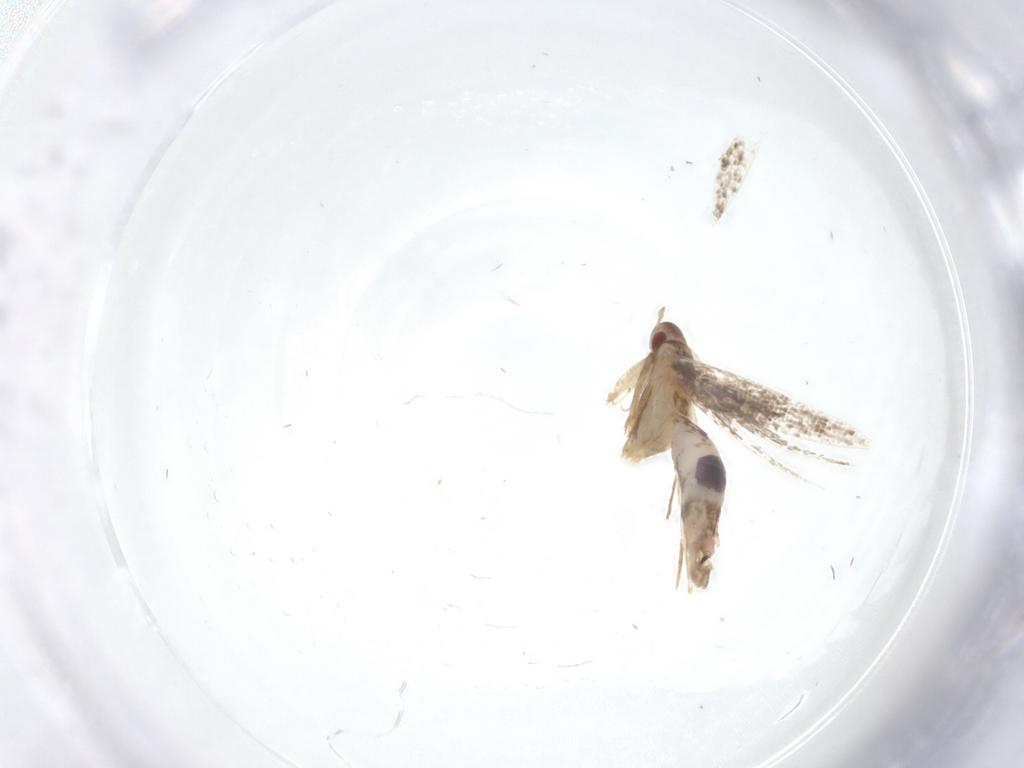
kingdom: Animalia
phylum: Arthropoda
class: Insecta
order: Lepidoptera
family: Cosmopterigidae
